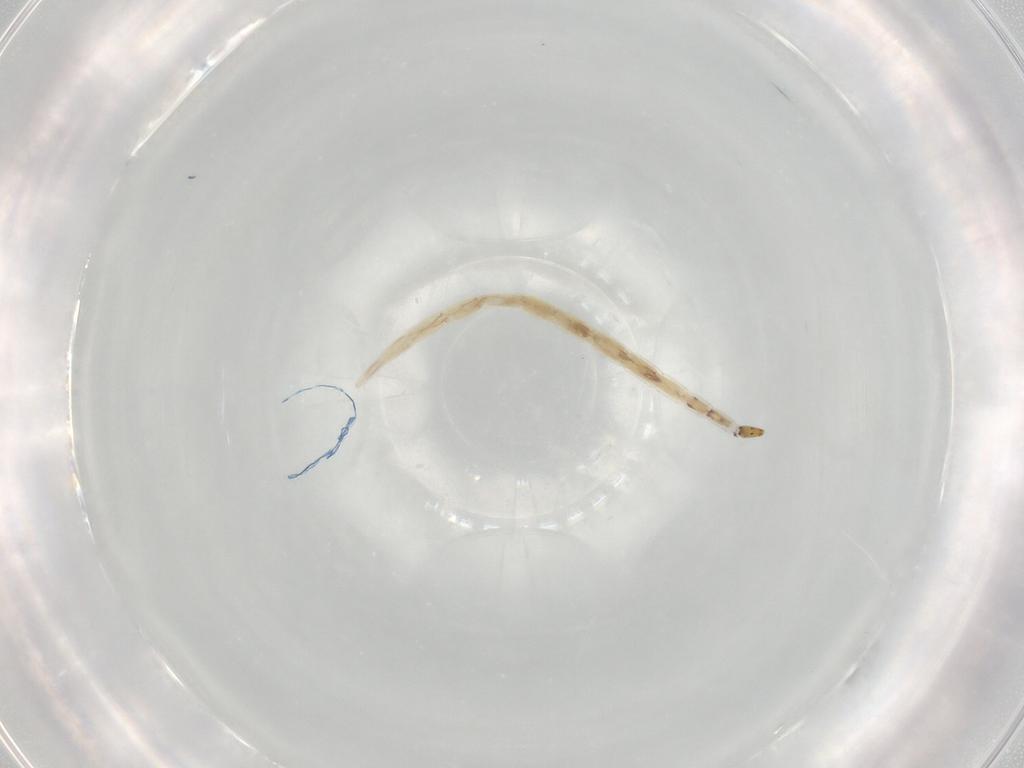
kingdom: Animalia
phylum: Arthropoda
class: Insecta
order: Diptera
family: Ceratopogonidae
